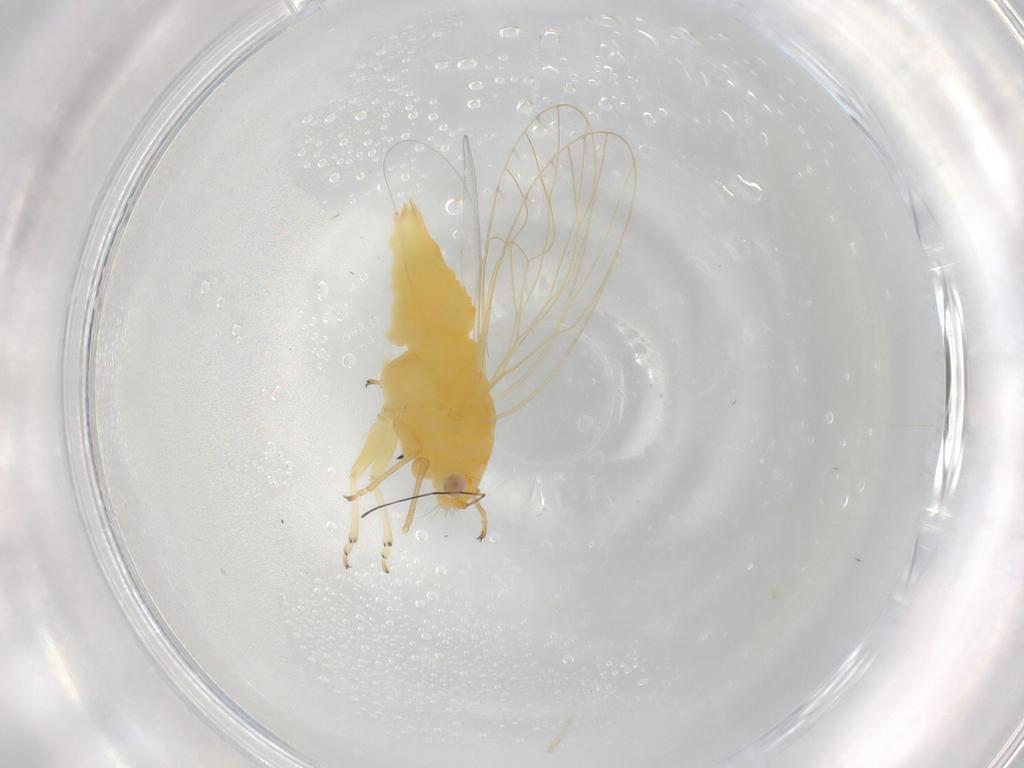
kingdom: Animalia
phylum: Arthropoda
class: Insecta
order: Hemiptera
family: Psyllidae
